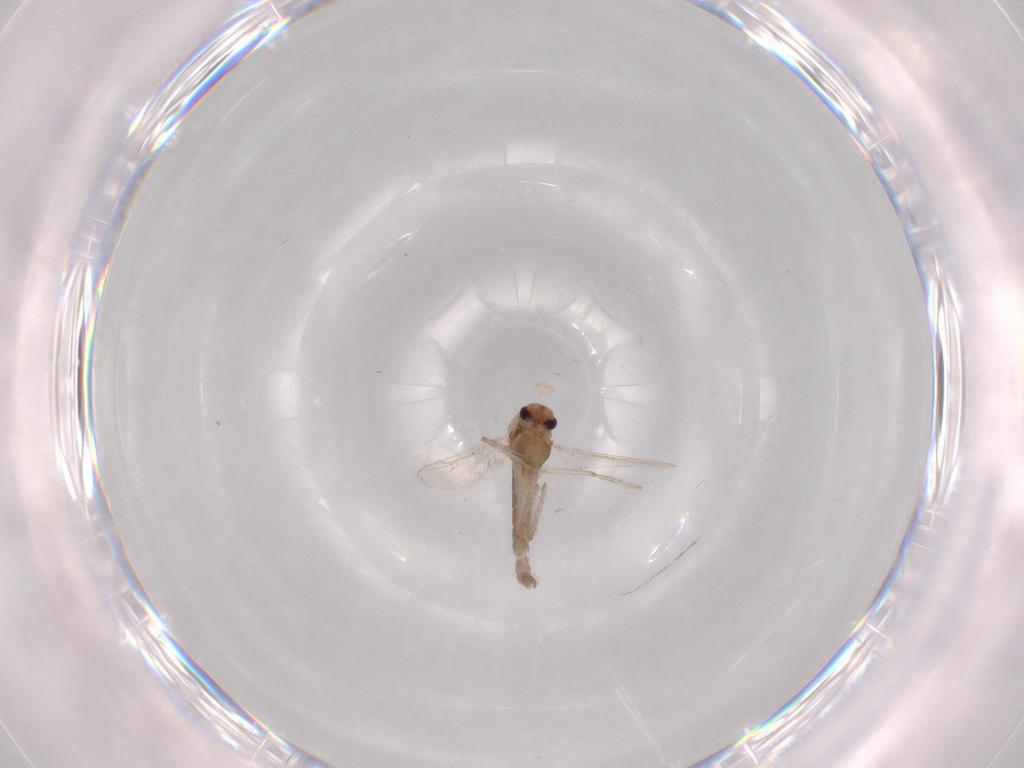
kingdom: Animalia
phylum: Arthropoda
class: Insecta
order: Diptera
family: Chironomidae
